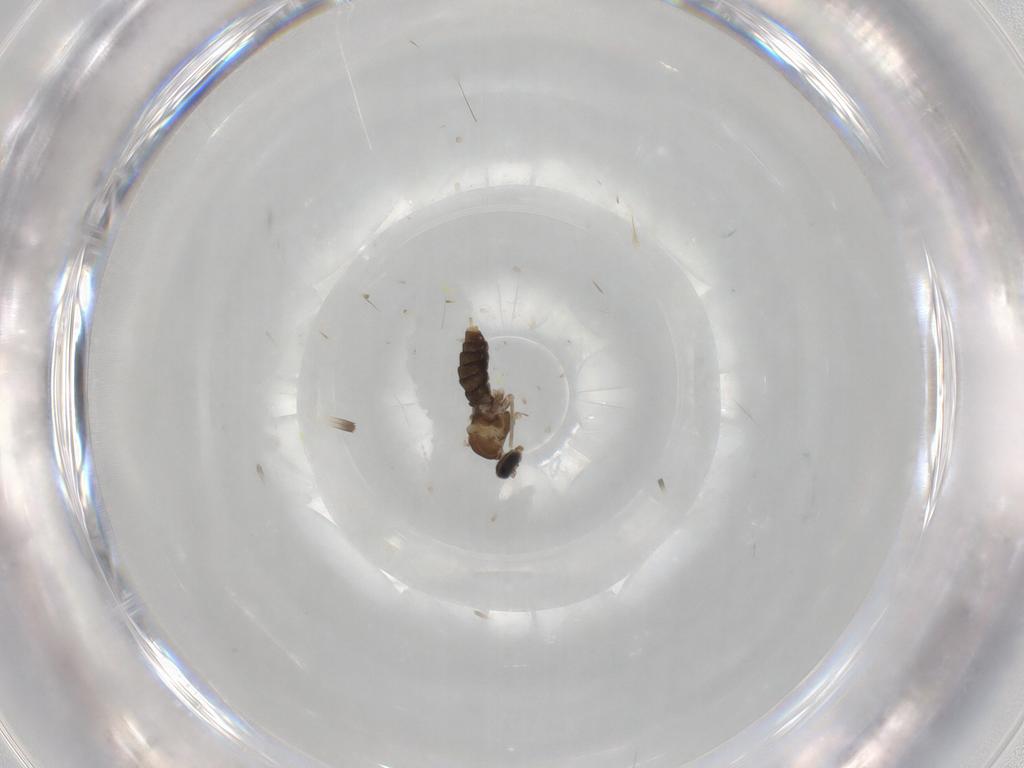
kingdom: Animalia
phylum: Arthropoda
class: Insecta
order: Diptera
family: Cecidomyiidae
